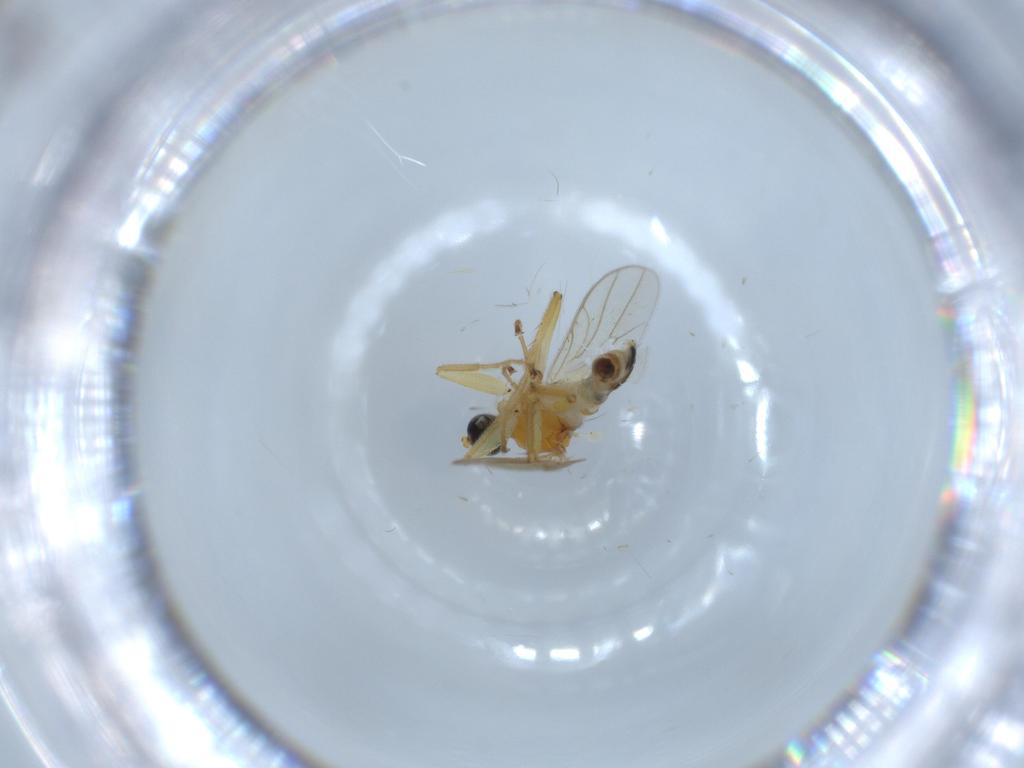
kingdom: Animalia
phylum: Arthropoda
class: Insecta
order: Diptera
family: Hybotidae
